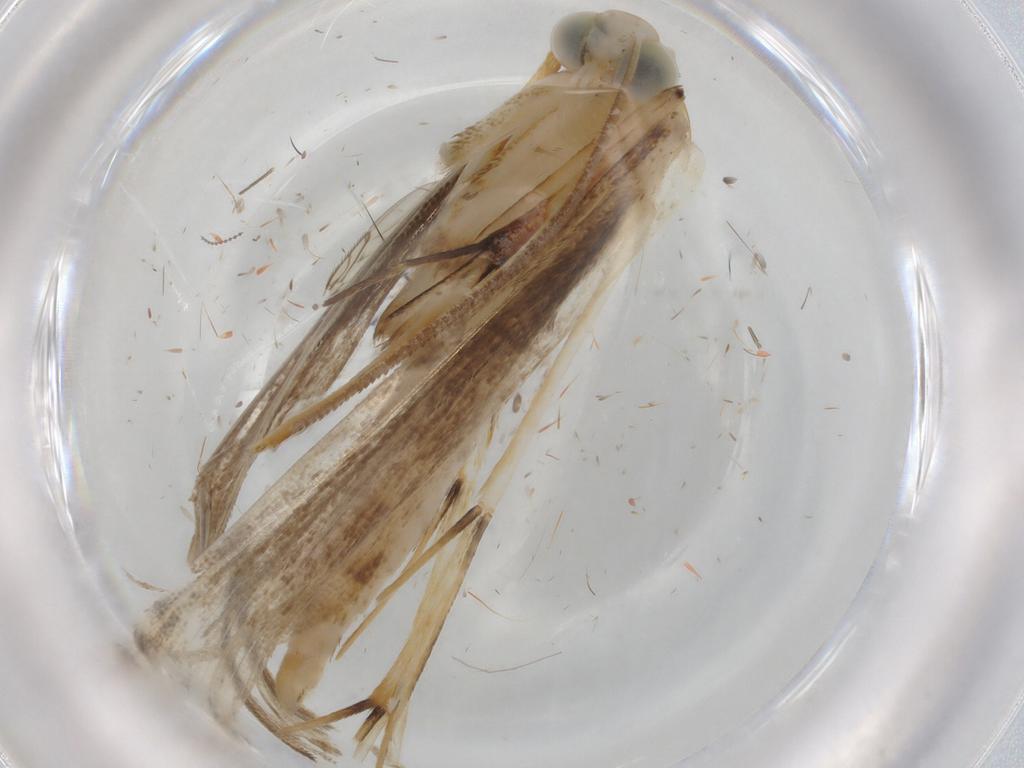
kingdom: Animalia
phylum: Arthropoda
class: Insecta
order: Lepidoptera
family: Pterophoridae
